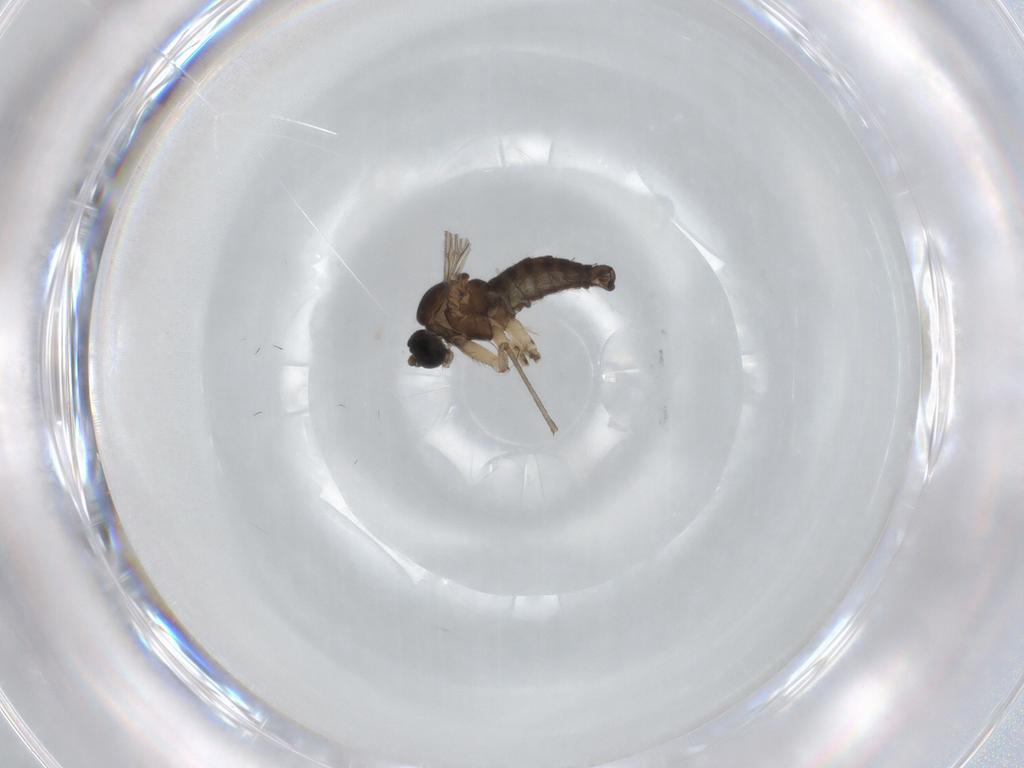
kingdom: Animalia
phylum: Arthropoda
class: Insecta
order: Diptera
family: Sciaridae
